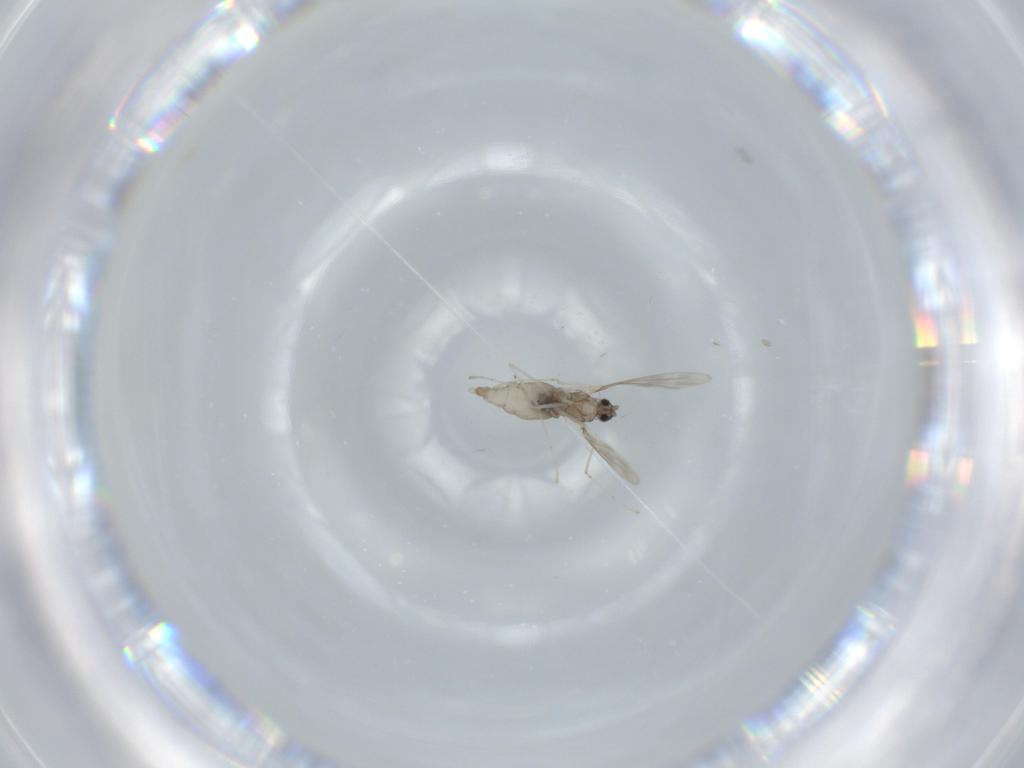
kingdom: Animalia
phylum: Arthropoda
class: Insecta
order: Diptera
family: Cecidomyiidae
